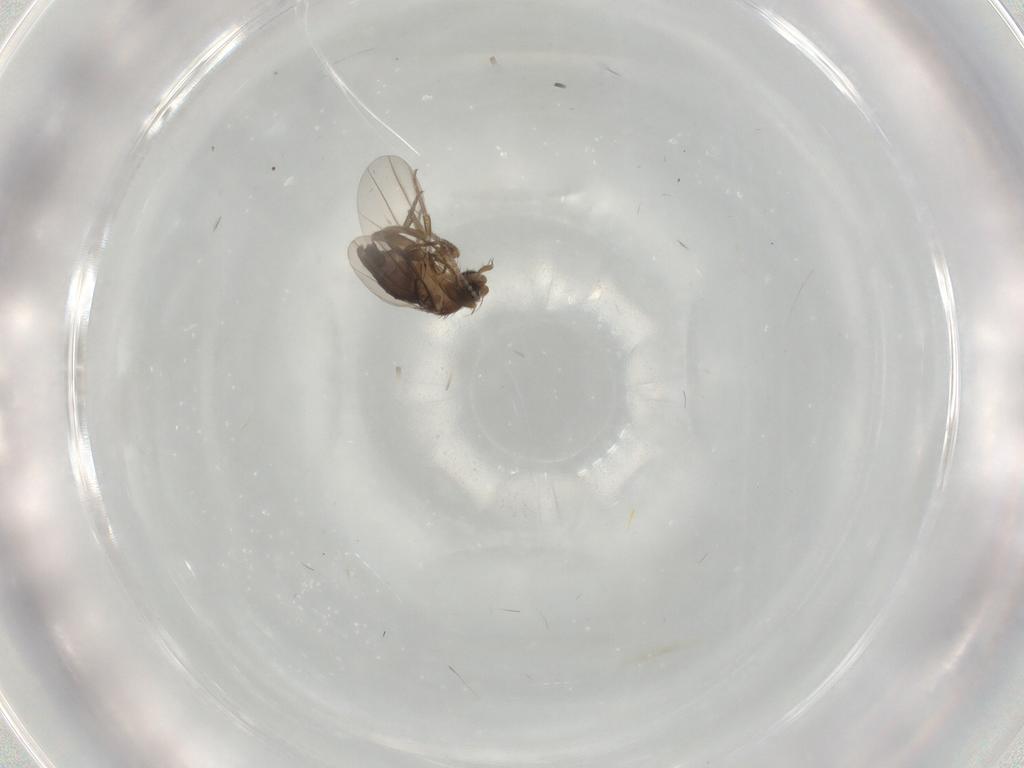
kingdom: Animalia
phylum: Arthropoda
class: Insecta
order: Diptera
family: Phoridae
